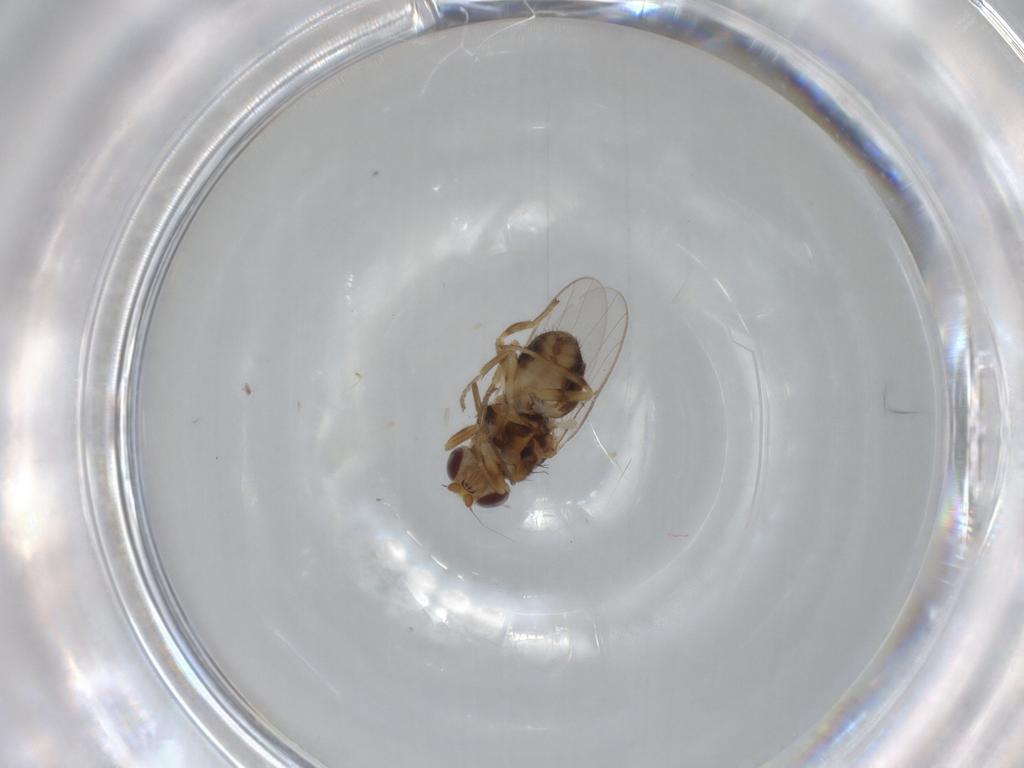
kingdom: Animalia
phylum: Arthropoda
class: Insecta
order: Diptera
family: Chloropidae
